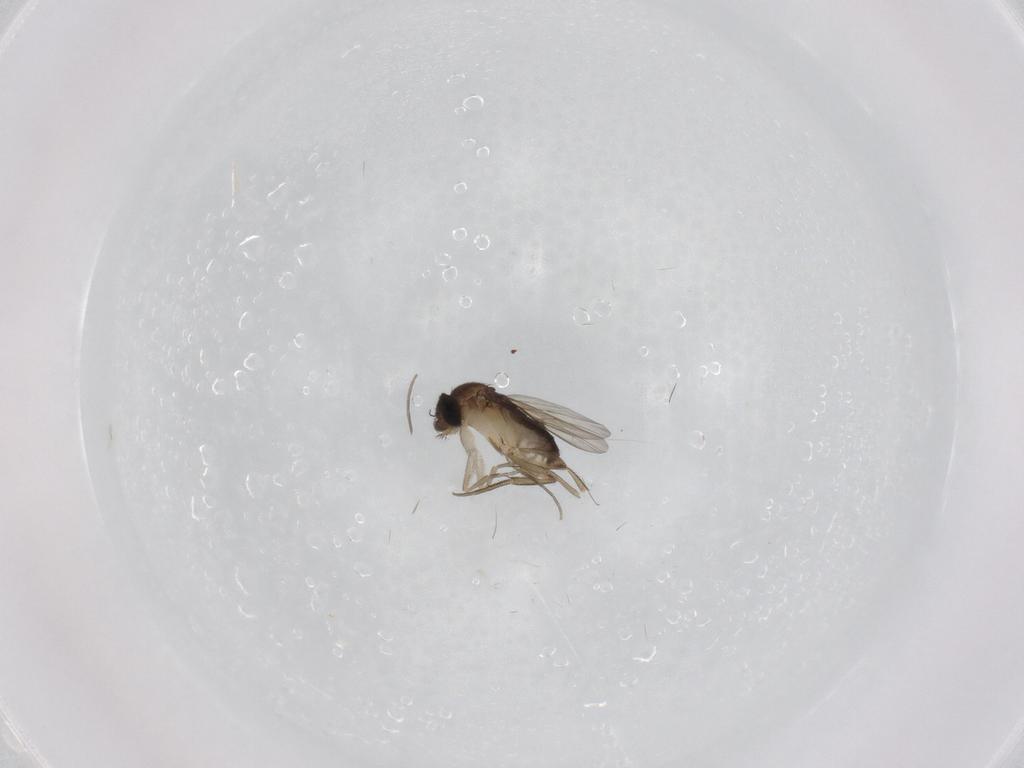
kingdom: Animalia
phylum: Arthropoda
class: Insecta
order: Diptera
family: Phoridae
